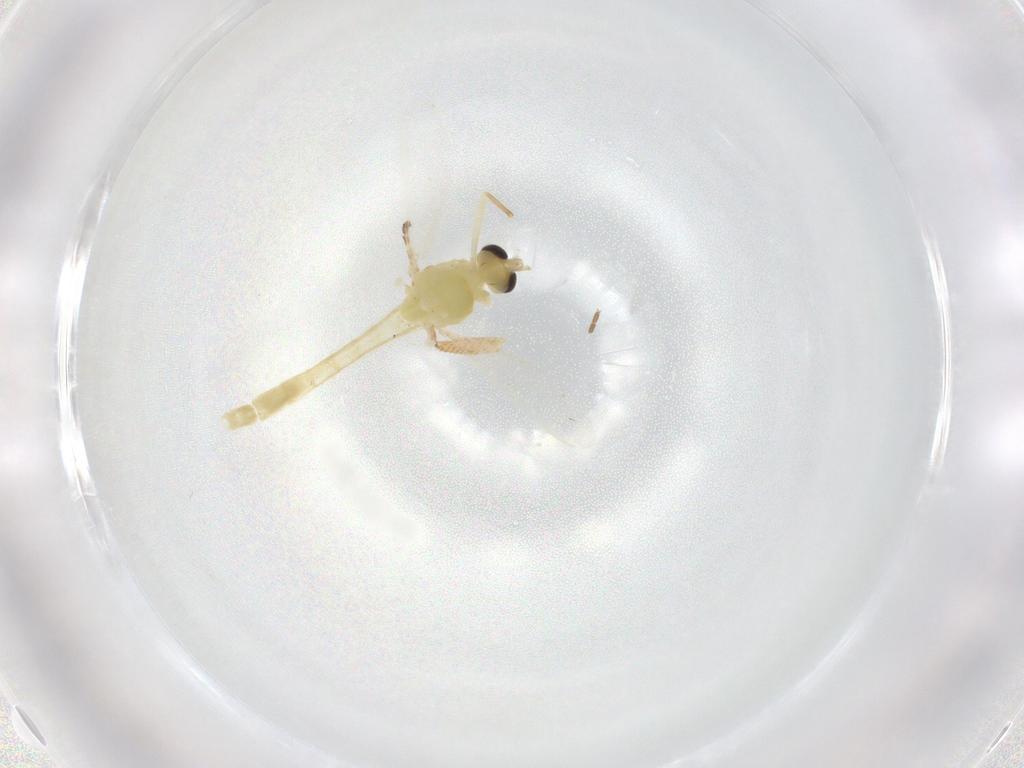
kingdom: Animalia
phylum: Arthropoda
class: Insecta
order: Diptera
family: Chironomidae
